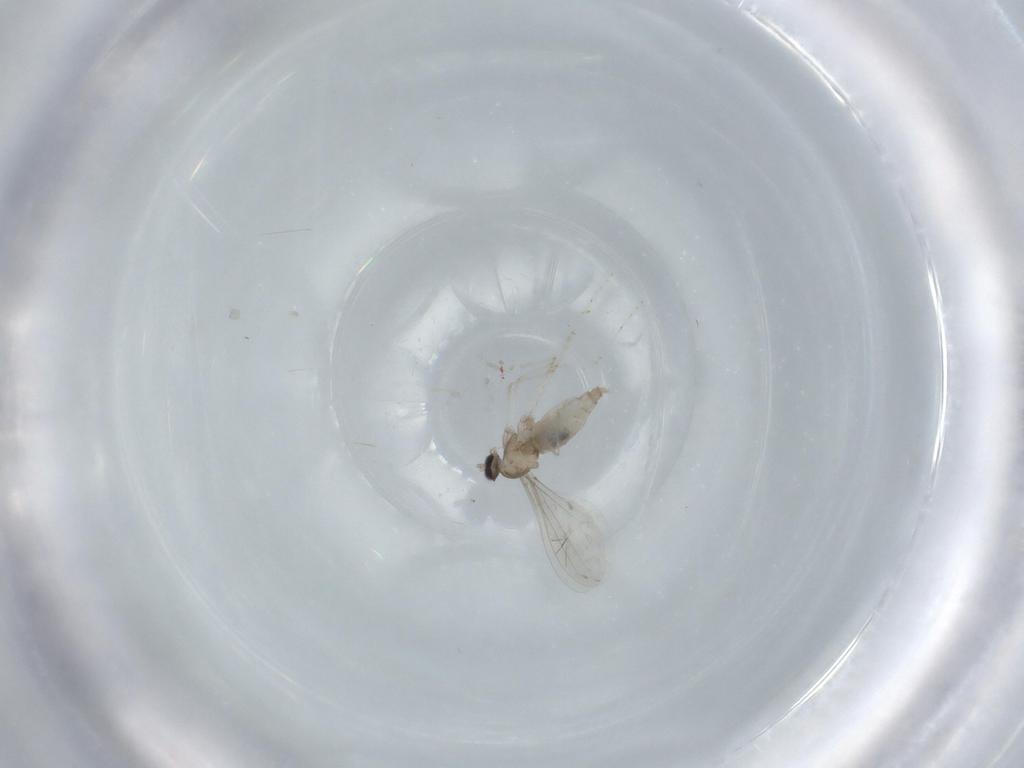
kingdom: Animalia
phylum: Arthropoda
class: Insecta
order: Diptera
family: Cecidomyiidae
